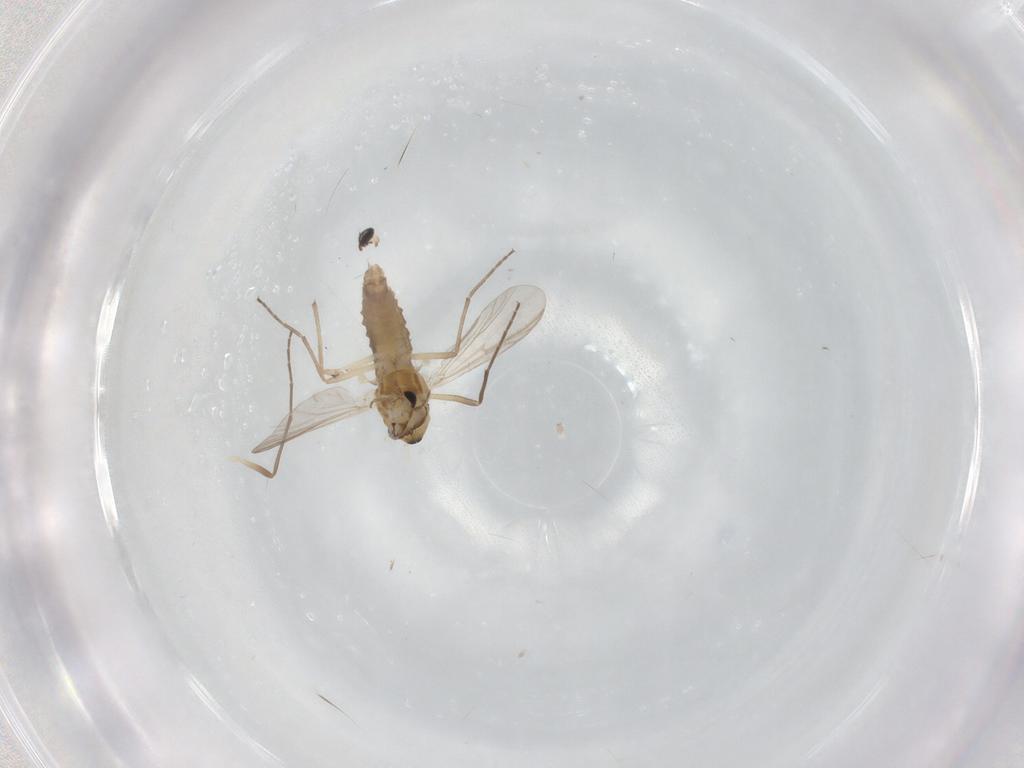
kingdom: Animalia
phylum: Arthropoda
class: Insecta
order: Diptera
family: Chironomidae
